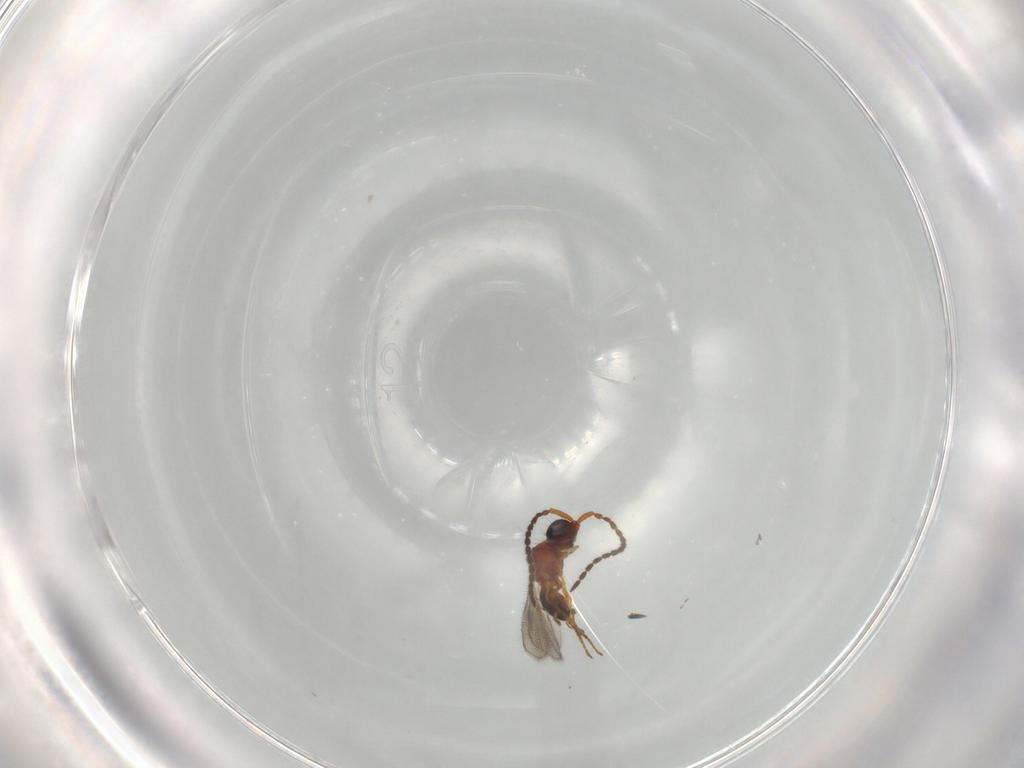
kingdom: Animalia
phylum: Arthropoda
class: Insecta
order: Hymenoptera
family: Diapriidae
